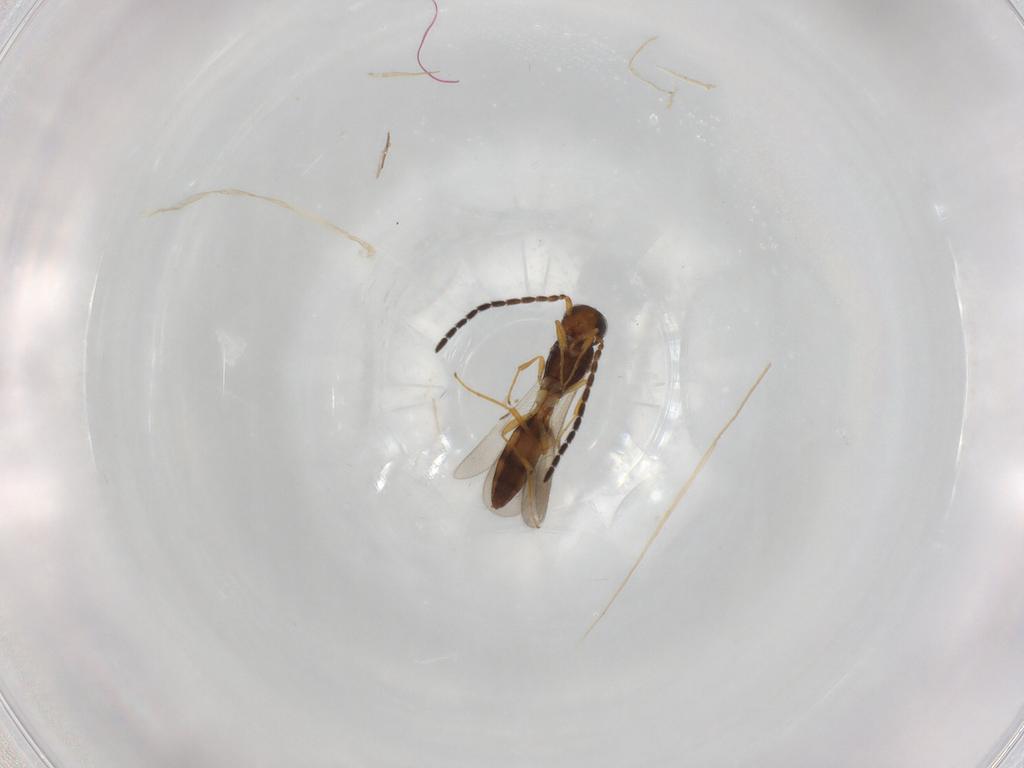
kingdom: Animalia
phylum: Arthropoda
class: Insecta
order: Hymenoptera
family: Scelionidae
